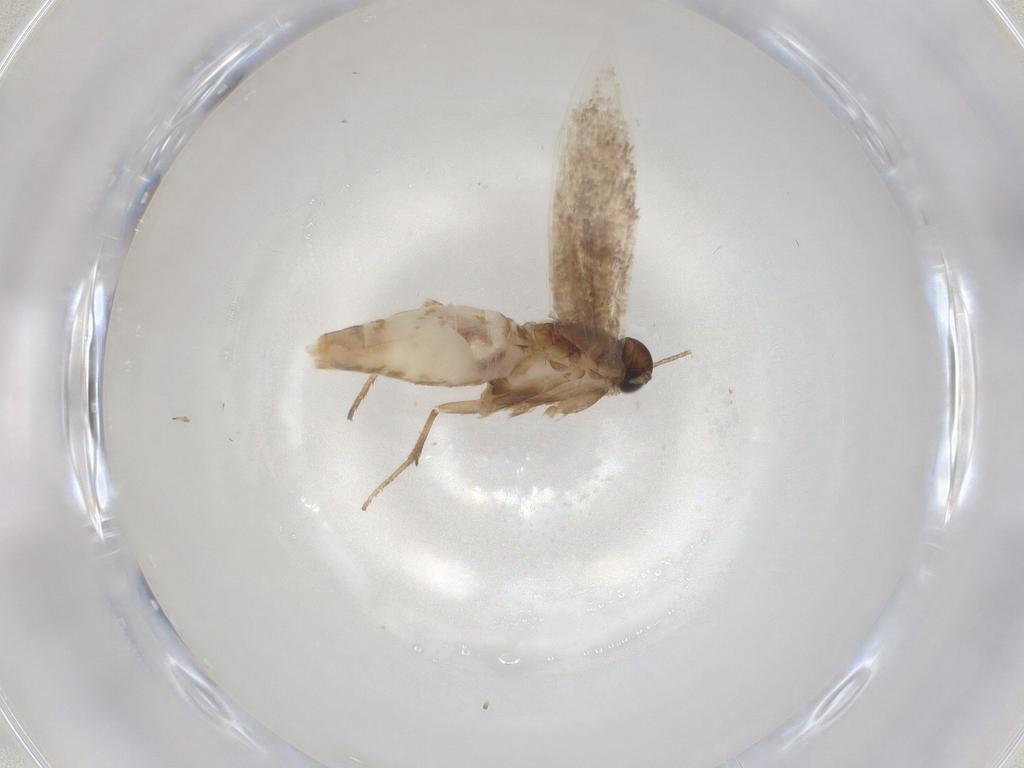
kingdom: Animalia
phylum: Arthropoda
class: Insecta
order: Lepidoptera
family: Gelechiidae
